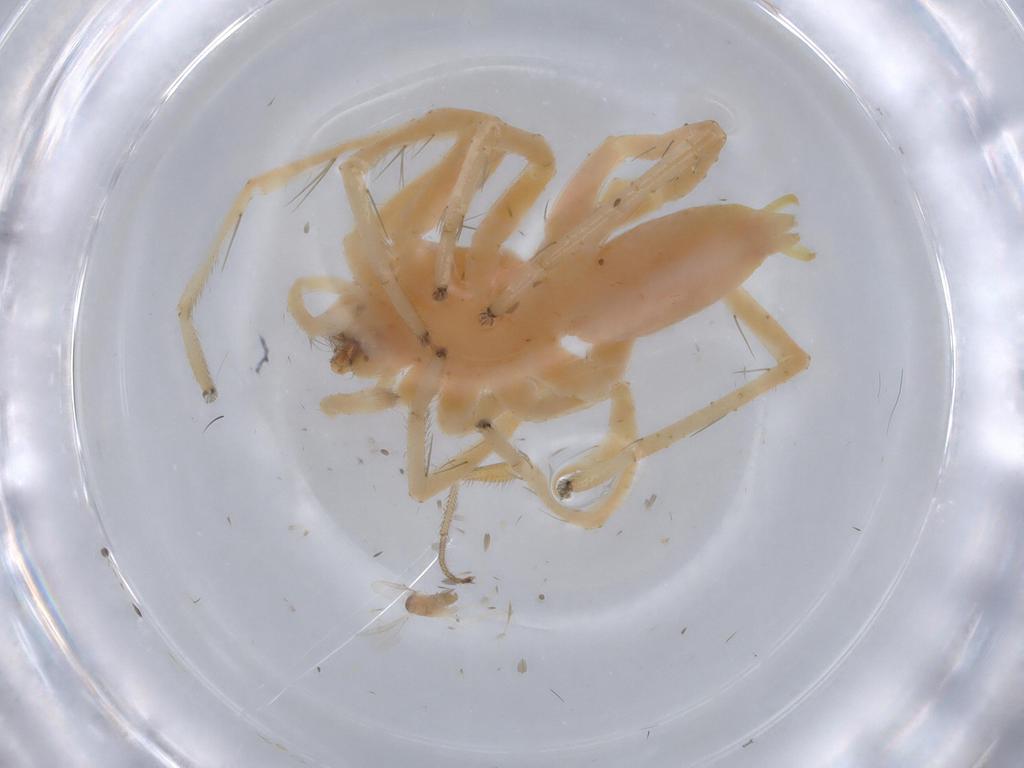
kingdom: Animalia
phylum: Arthropoda
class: Arachnida
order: Araneae
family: Anyphaenidae
